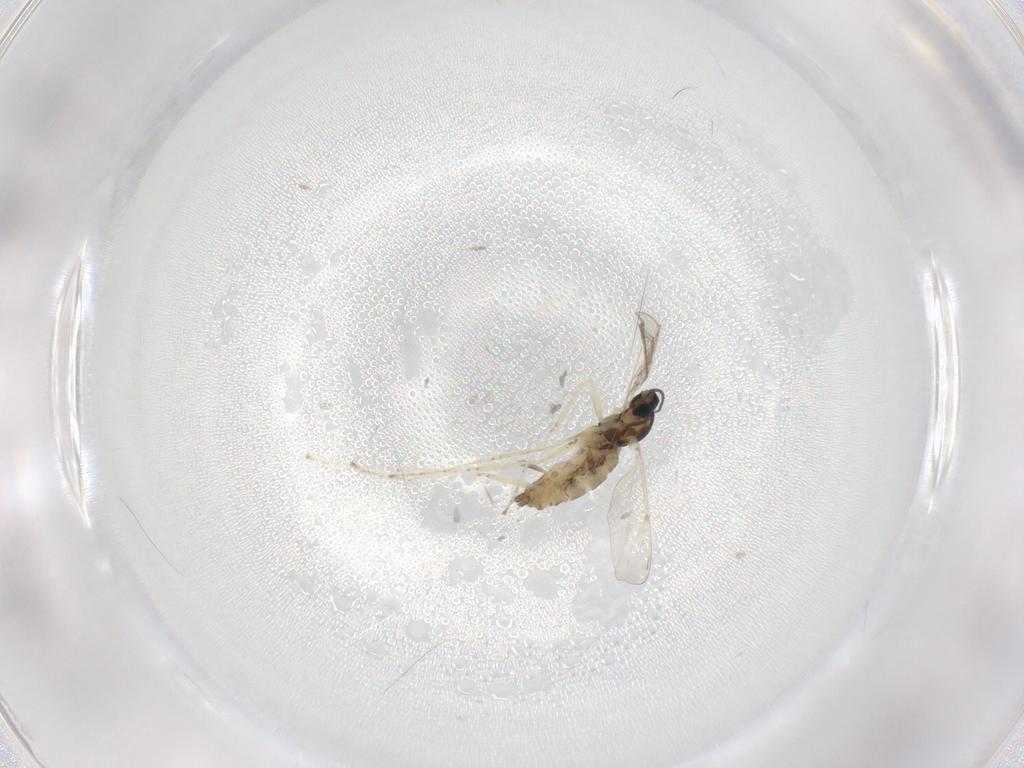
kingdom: Animalia
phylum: Arthropoda
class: Insecta
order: Diptera
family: Cecidomyiidae
